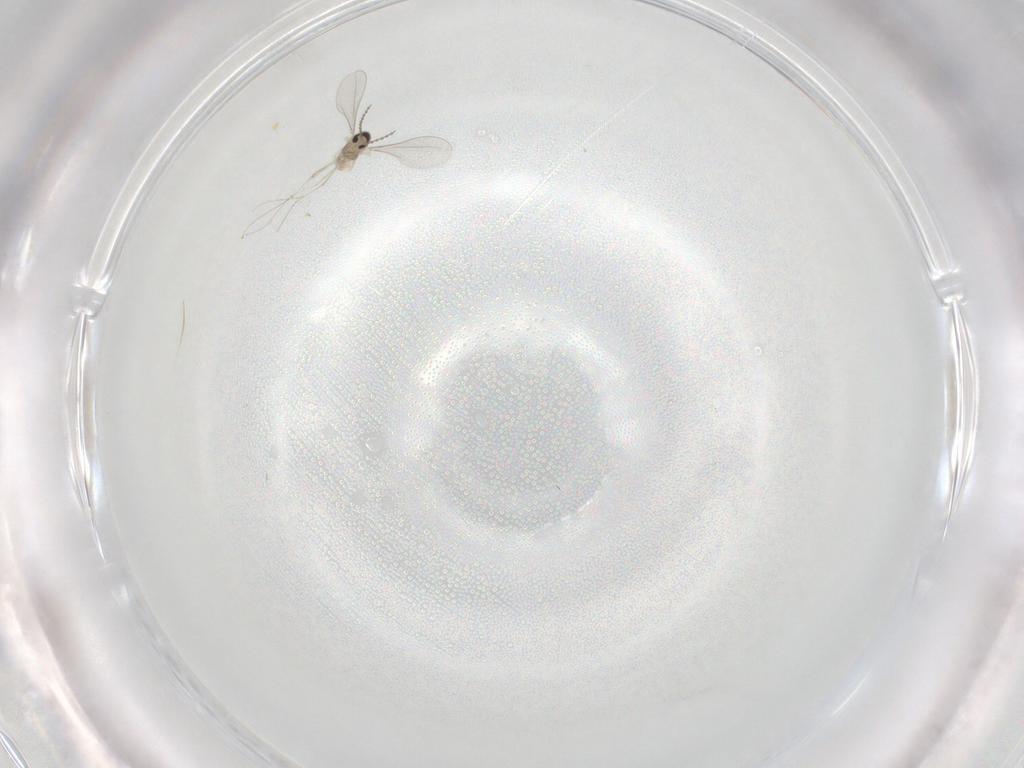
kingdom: Animalia
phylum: Arthropoda
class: Insecta
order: Diptera
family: Cecidomyiidae
